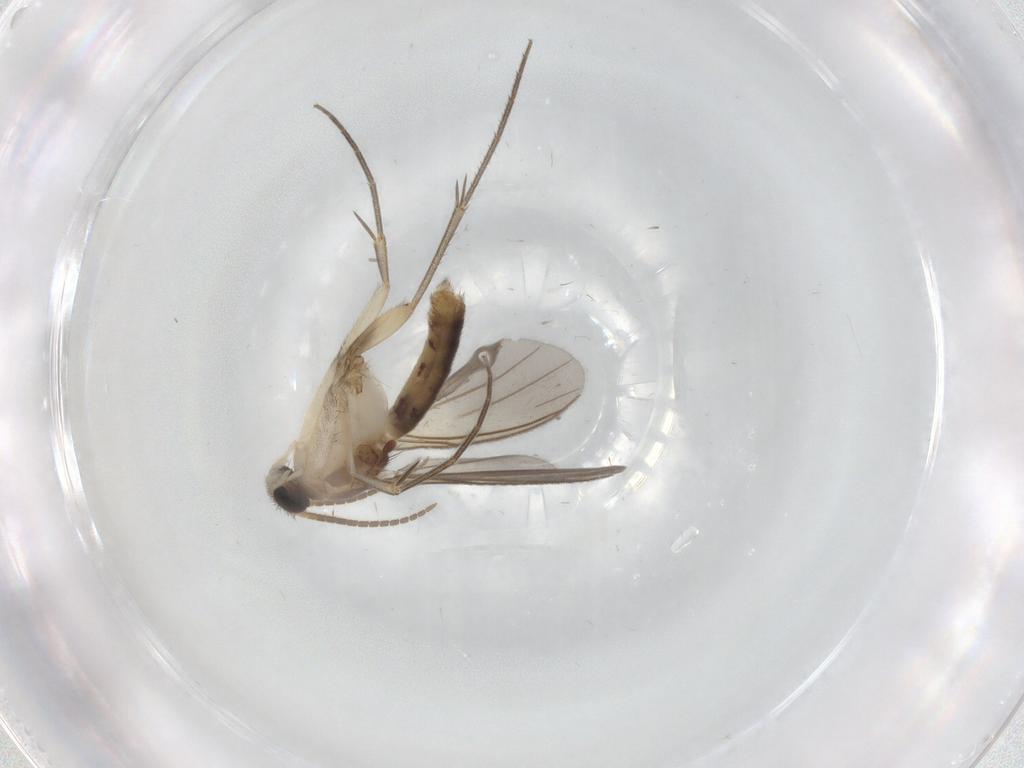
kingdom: Animalia
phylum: Arthropoda
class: Insecta
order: Diptera
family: Mycetophilidae
